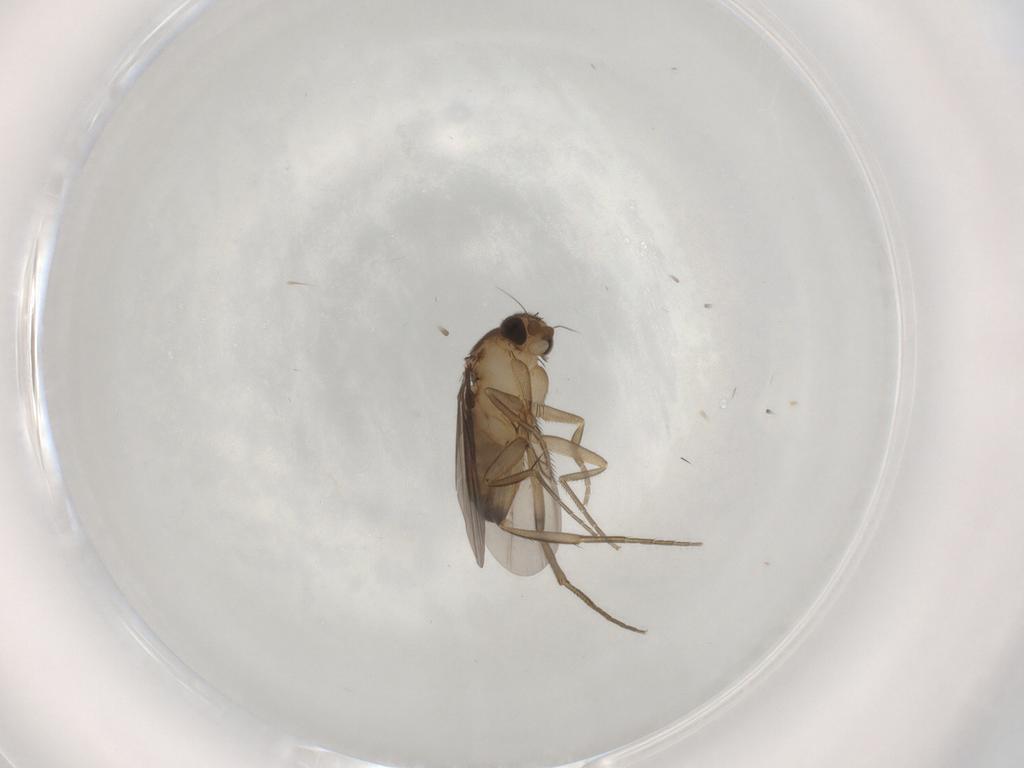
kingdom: Animalia
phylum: Arthropoda
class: Insecta
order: Diptera
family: Phoridae
